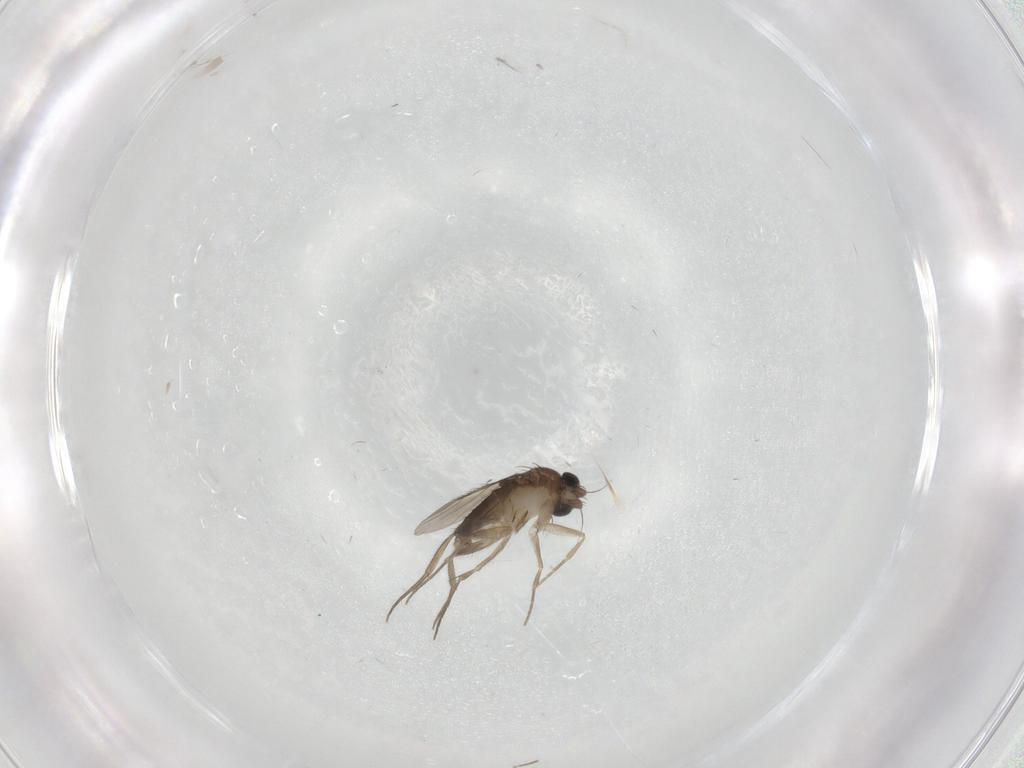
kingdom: Animalia
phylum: Arthropoda
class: Insecta
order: Diptera
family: Chironomidae
